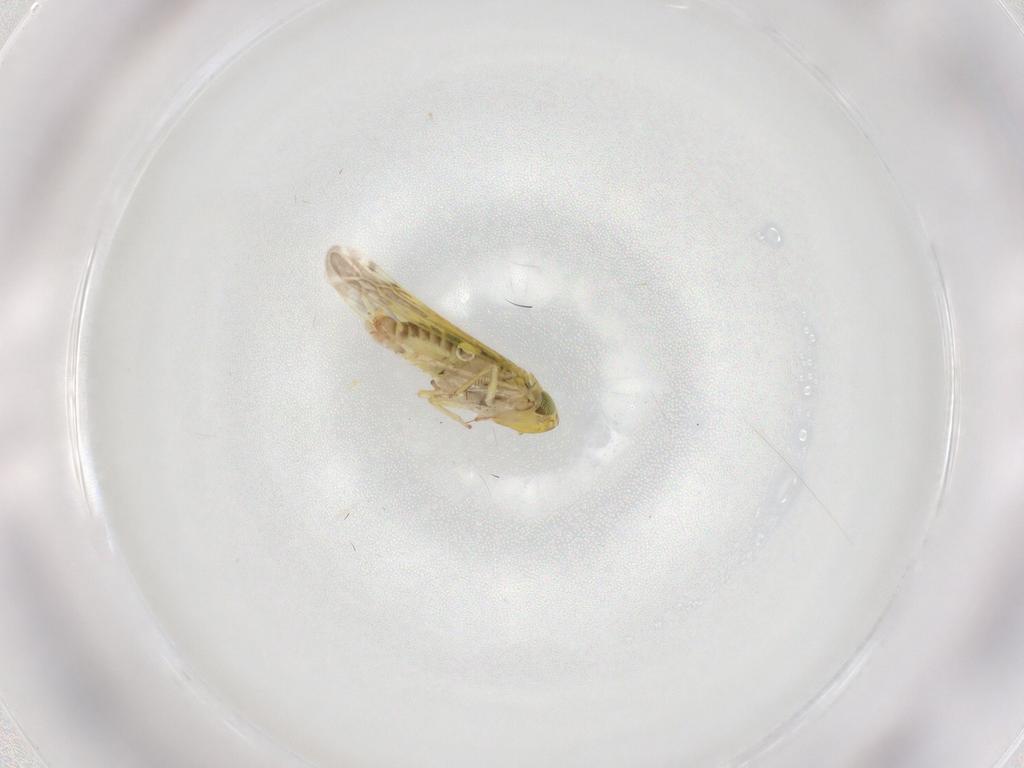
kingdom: Animalia
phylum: Arthropoda
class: Insecta
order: Hemiptera
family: Cicadellidae
